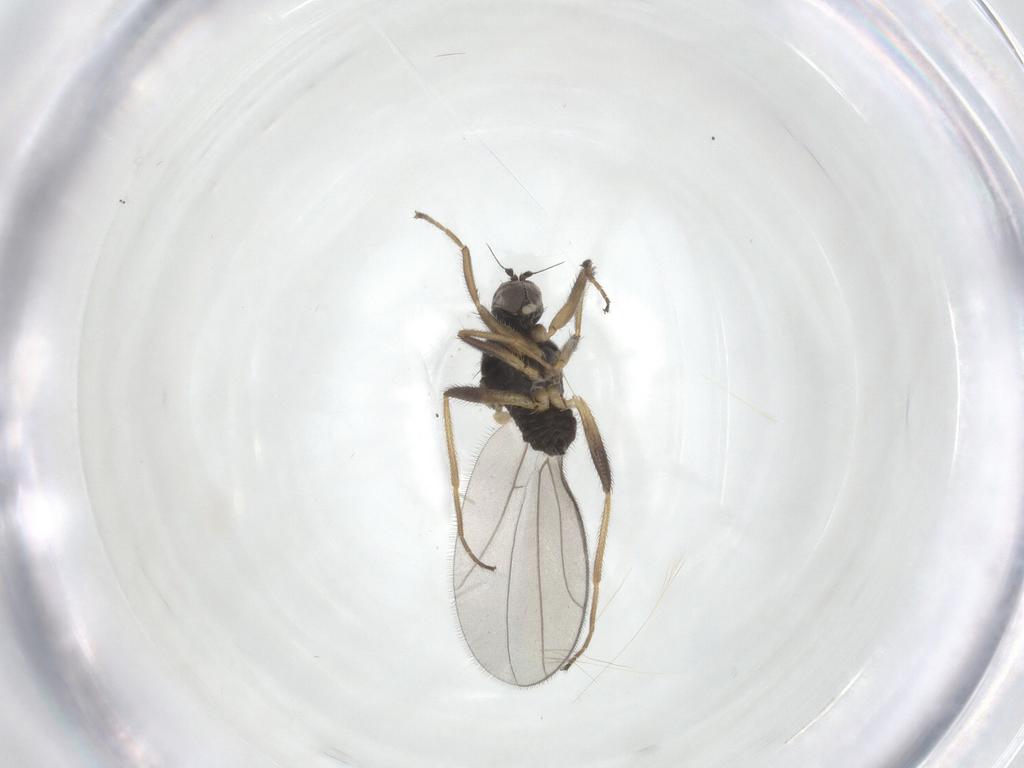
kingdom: Animalia
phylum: Arthropoda
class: Insecta
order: Diptera
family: Hybotidae
